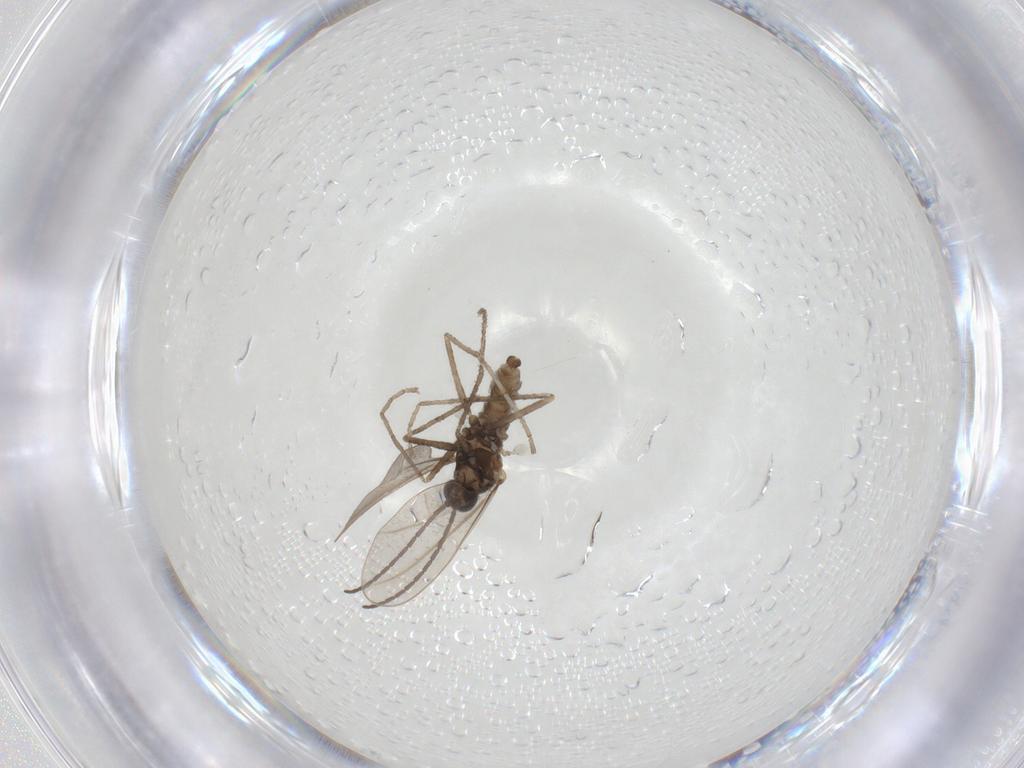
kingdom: Animalia
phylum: Arthropoda
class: Insecta
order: Diptera
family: Cecidomyiidae
